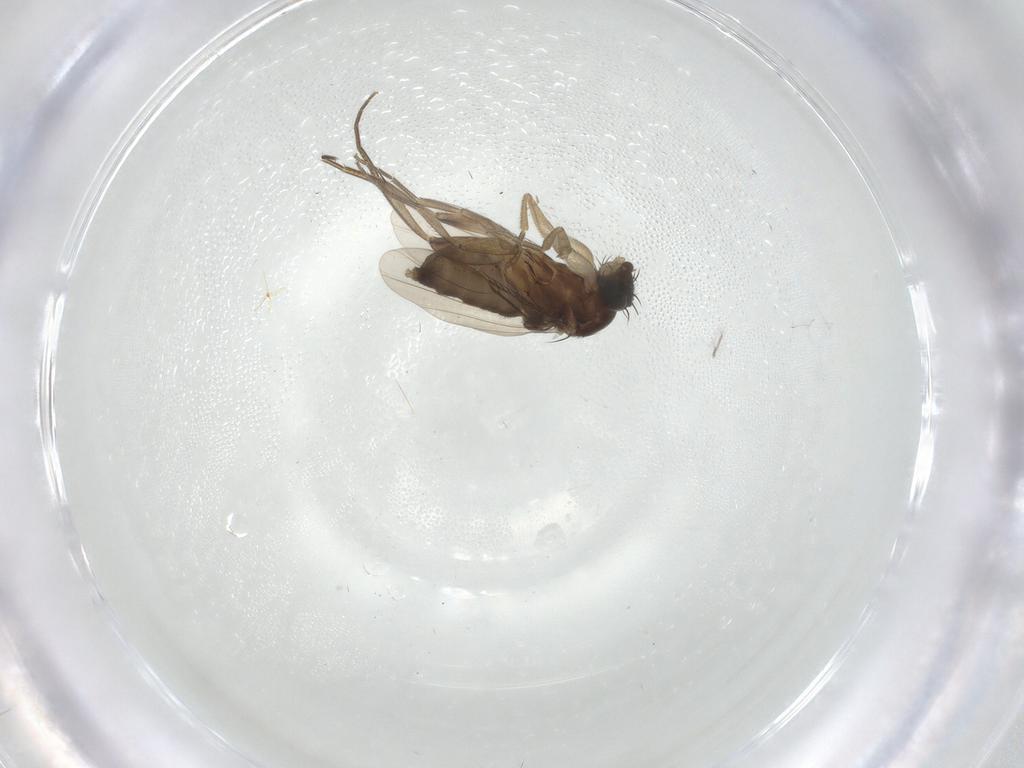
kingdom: Animalia
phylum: Arthropoda
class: Insecta
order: Diptera
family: Phoridae
